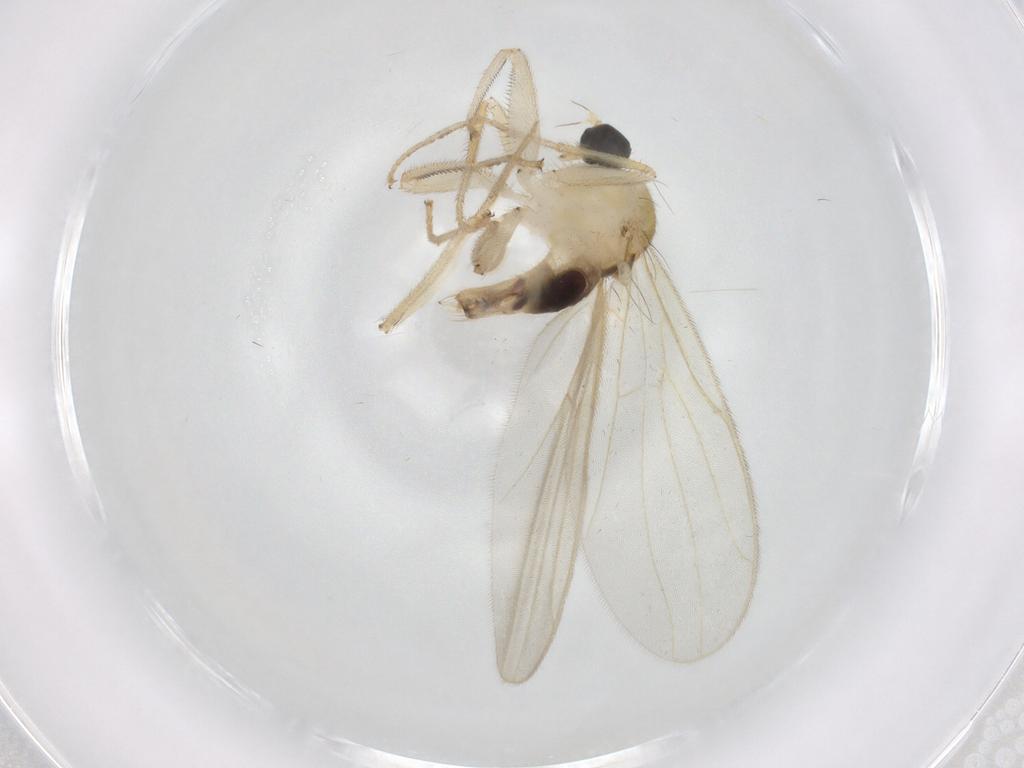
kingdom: Animalia
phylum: Arthropoda
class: Insecta
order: Diptera
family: Hybotidae
